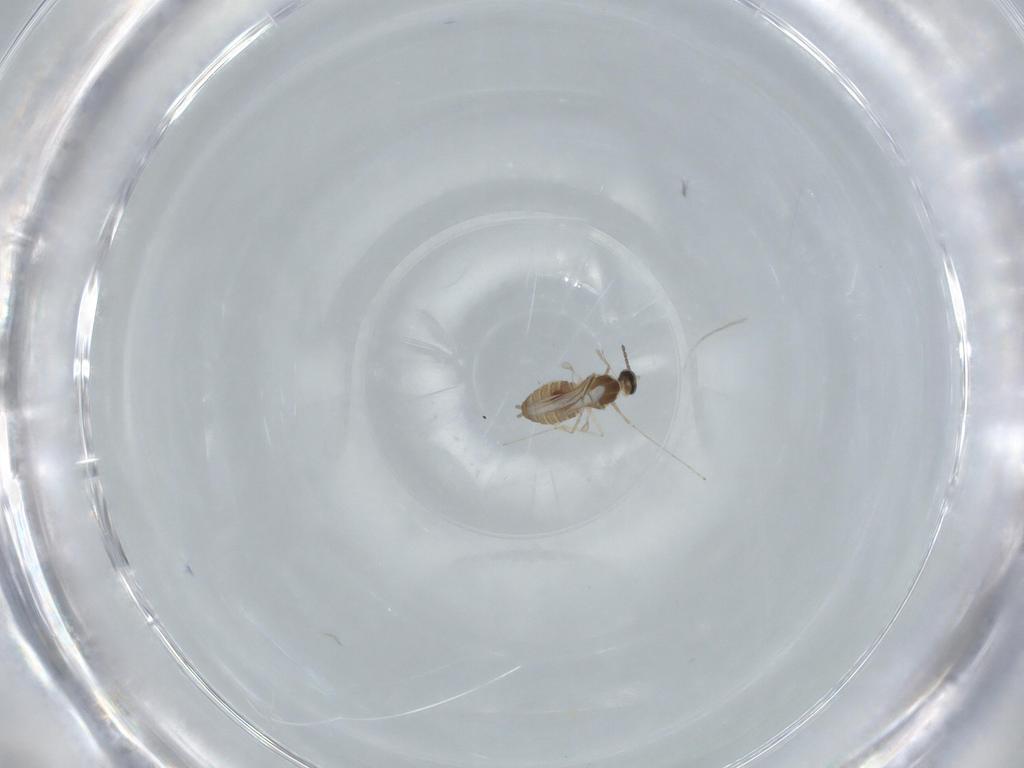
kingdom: Animalia
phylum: Arthropoda
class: Insecta
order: Diptera
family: Cecidomyiidae
